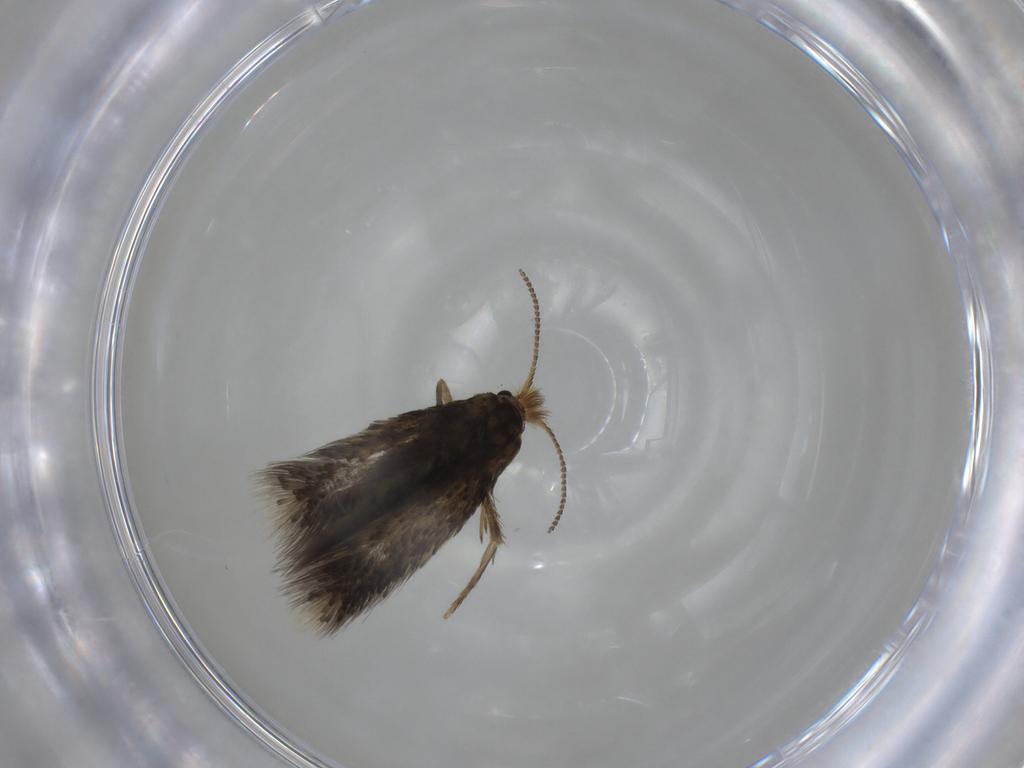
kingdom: Animalia
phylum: Arthropoda
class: Insecta
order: Lepidoptera
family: Nepticulidae
